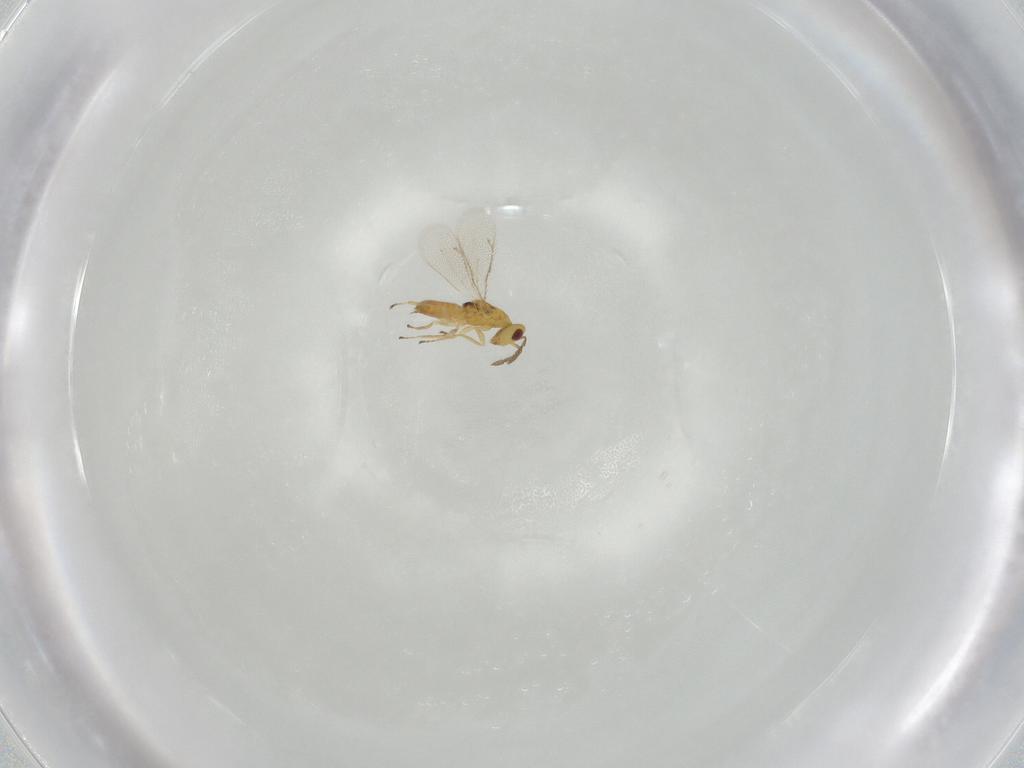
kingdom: Animalia
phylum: Arthropoda
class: Insecta
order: Hymenoptera
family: Eulophidae
